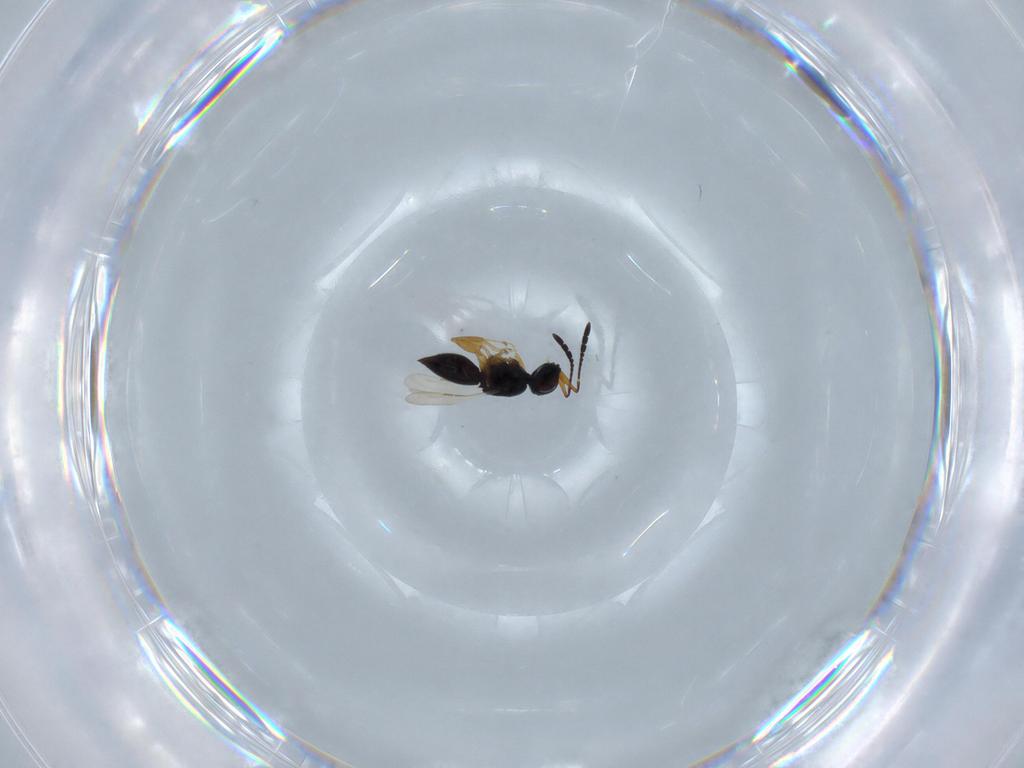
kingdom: Animalia
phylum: Arthropoda
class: Insecta
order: Hymenoptera
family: Ceraphronidae
